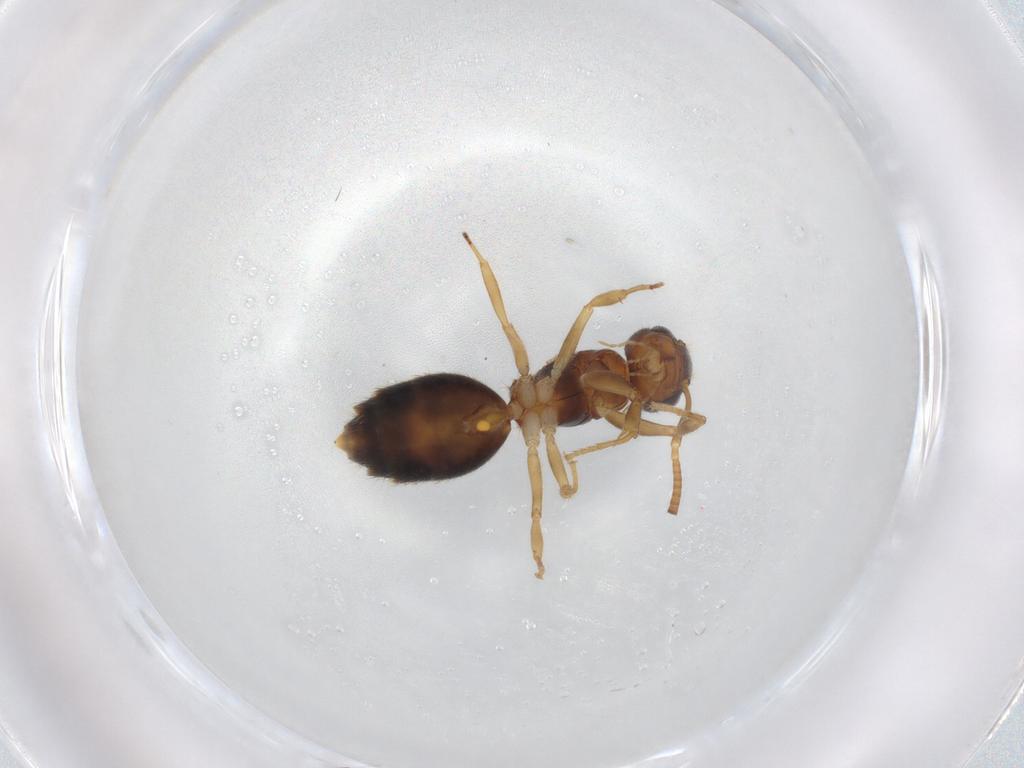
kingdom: Animalia
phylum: Arthropoda
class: Insecta
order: Hymenoptera
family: Formicidae
